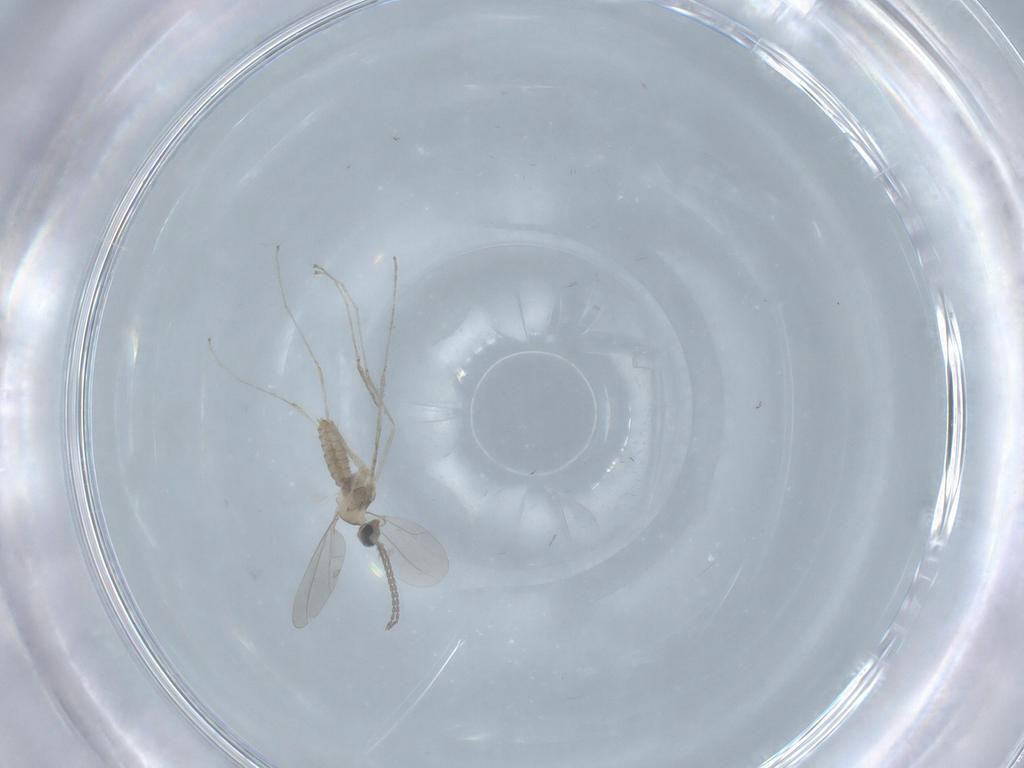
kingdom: Animalia
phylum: Arthropoda
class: Insecta
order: Diptera
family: Cecidomyiidae
